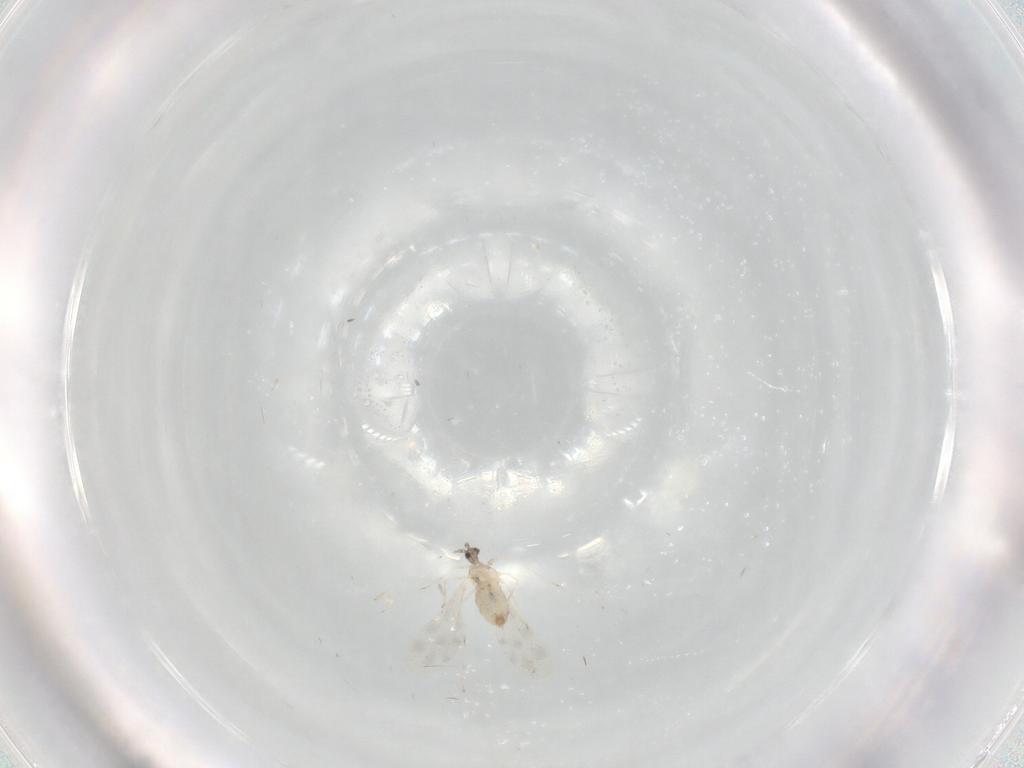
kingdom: Animalia
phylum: Arthropoda
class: Insecta
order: Diptera
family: Cecidomyiidae
